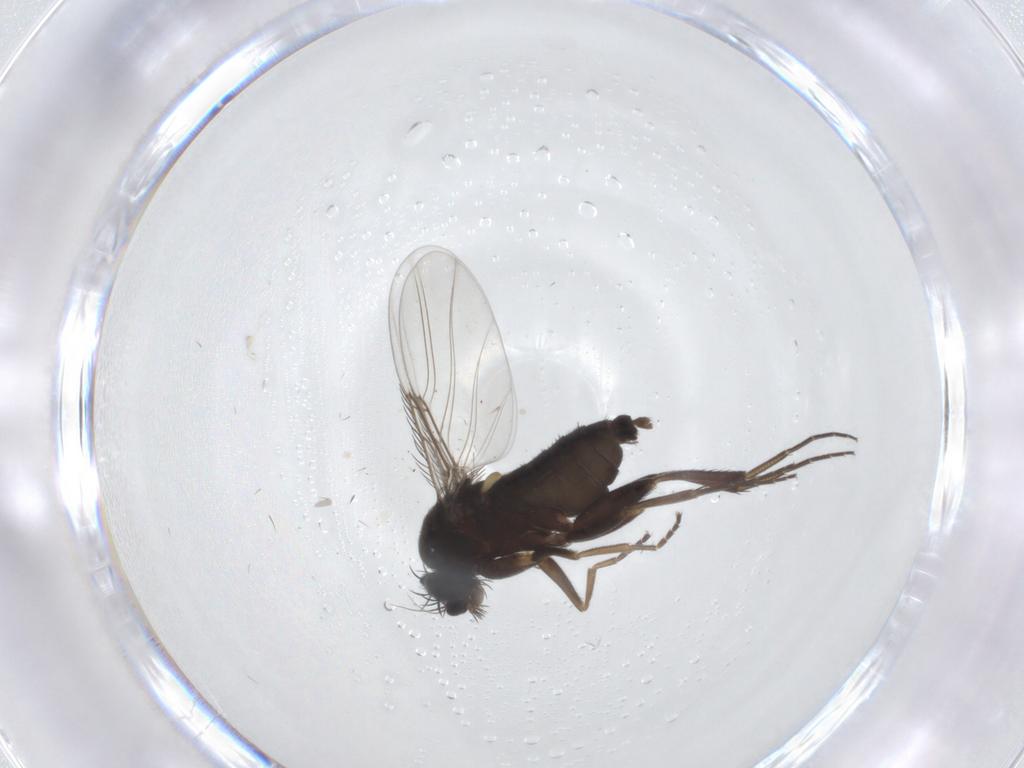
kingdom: Animalia
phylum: Arthropoda
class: Insecta
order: Diptera
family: Phoridae
